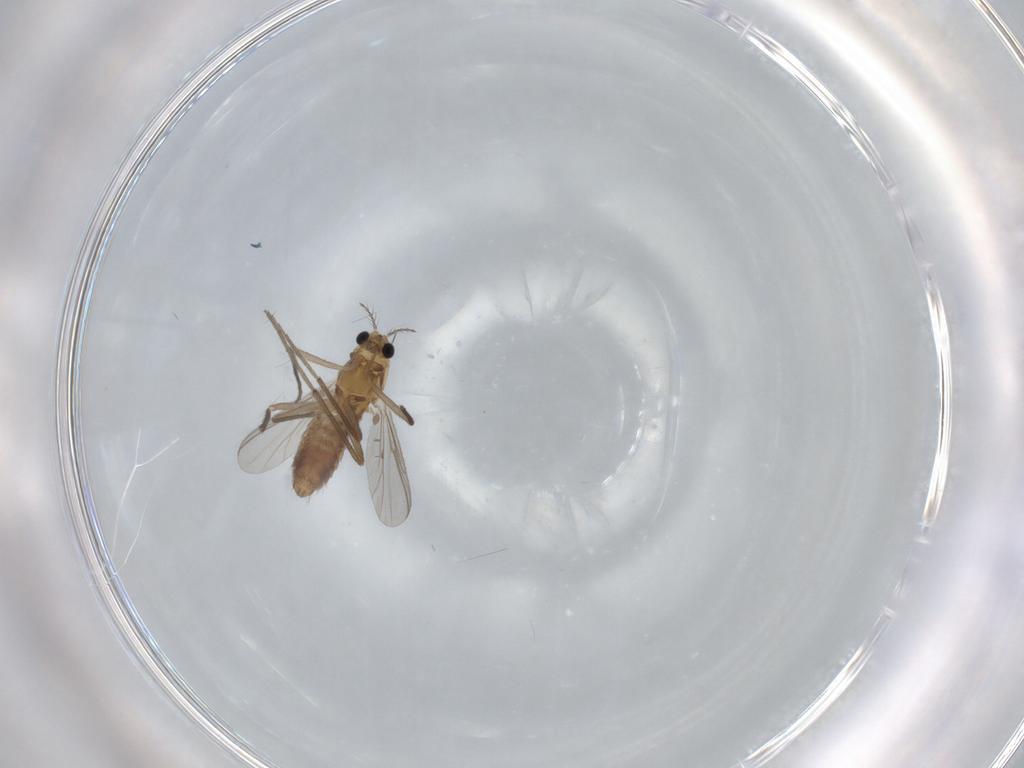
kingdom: Animalia
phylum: Arthropoda
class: Insecta
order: Diptera
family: Chironomidae
